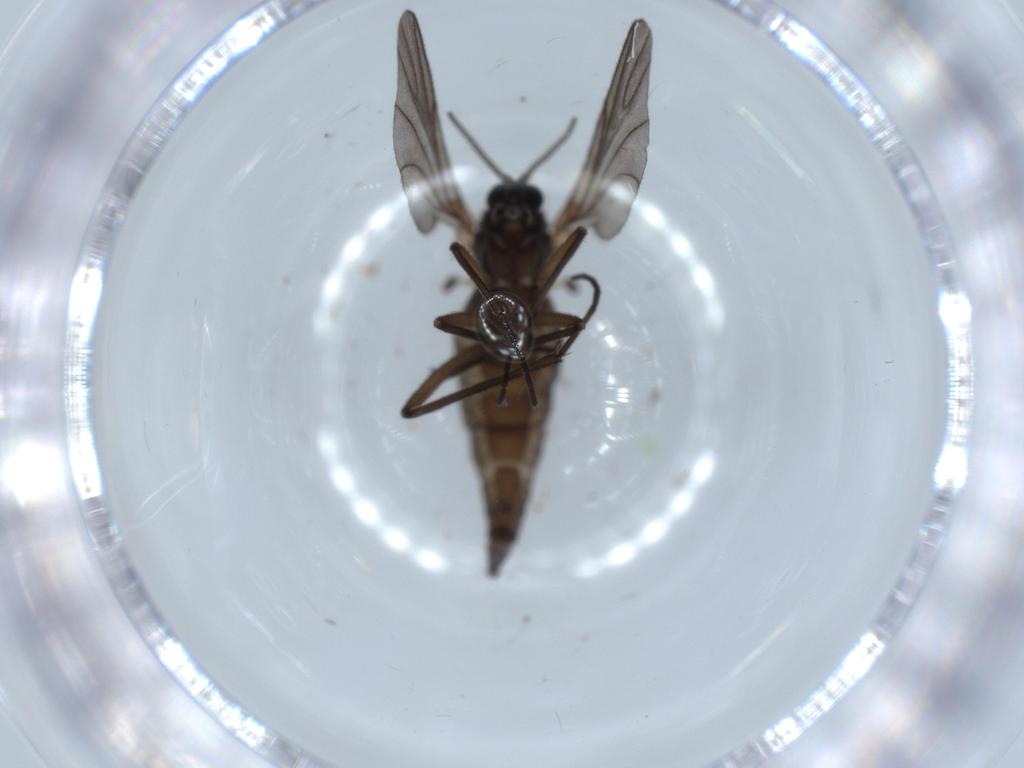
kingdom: Animalia
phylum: Arthropoda
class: Insecta
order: Diptera
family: Sciaridae
